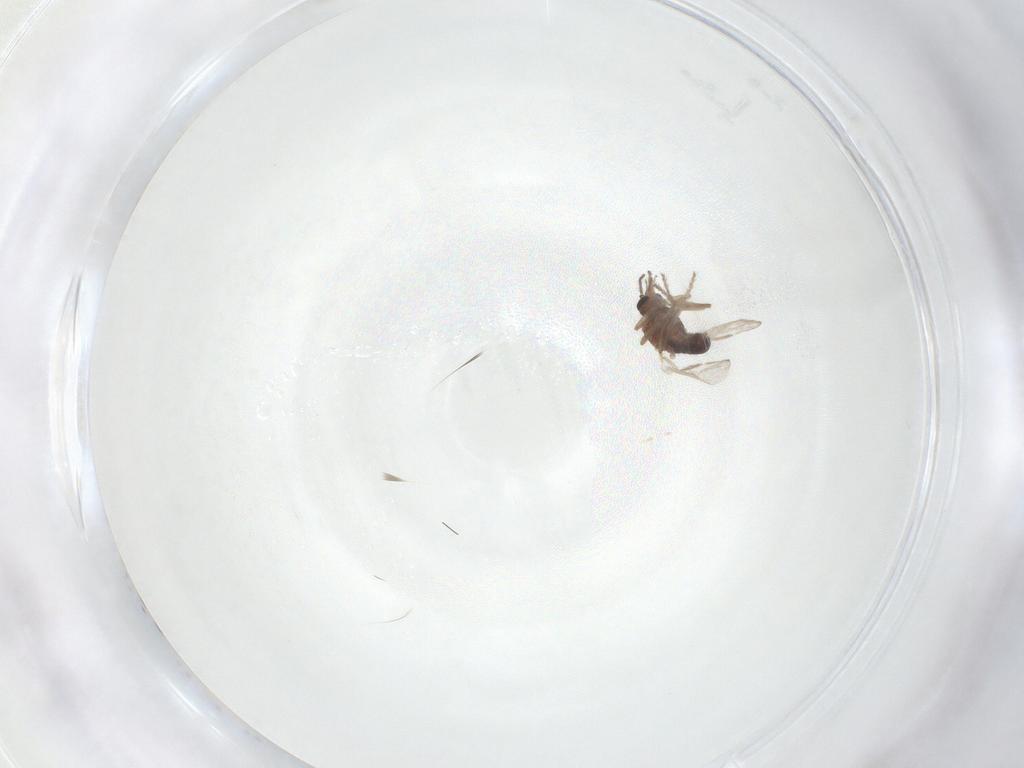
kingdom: Animalia
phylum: Arthropoda
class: Insecta
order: Diptera
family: Ceratopogonidae
